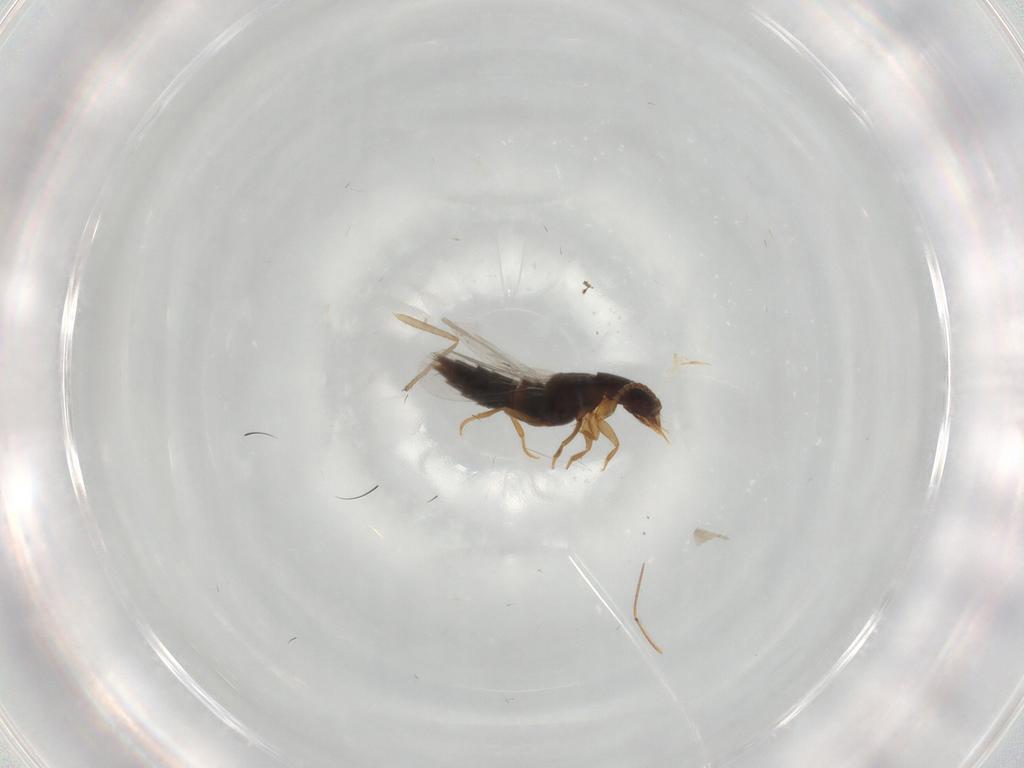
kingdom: Animalia
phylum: Arthropoda
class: Insecta
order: Coleoptera
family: Staphylinidae
